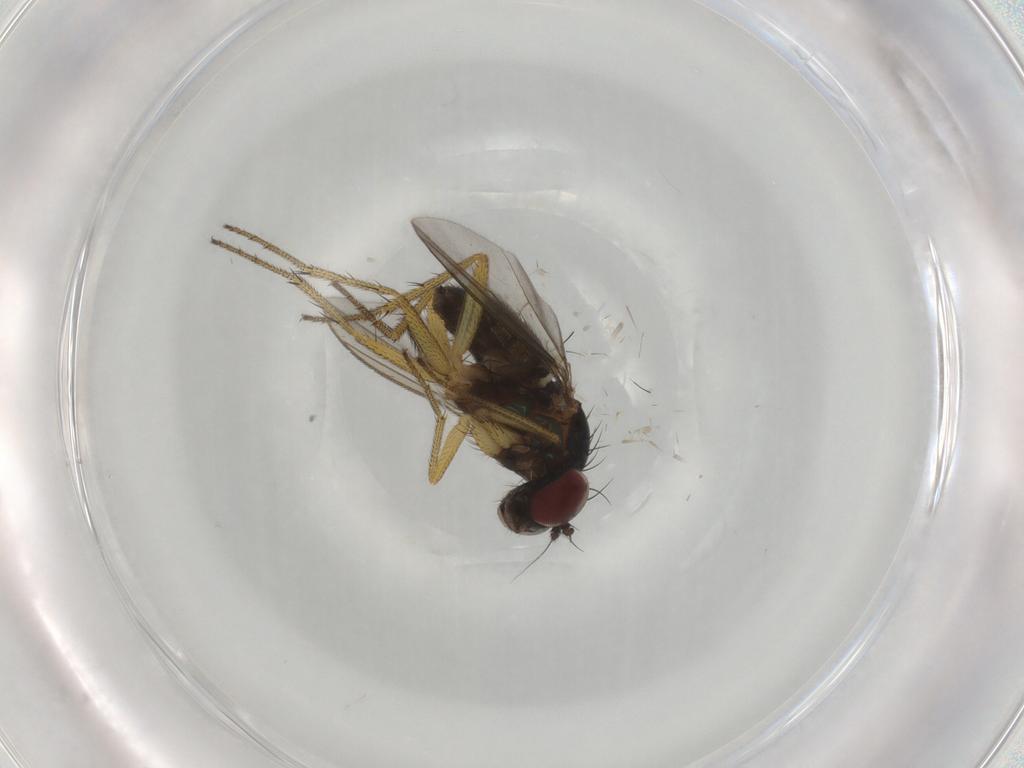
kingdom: Animalia
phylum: Arthropoda
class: Insecta
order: Diptera
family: Dolichopodidae
